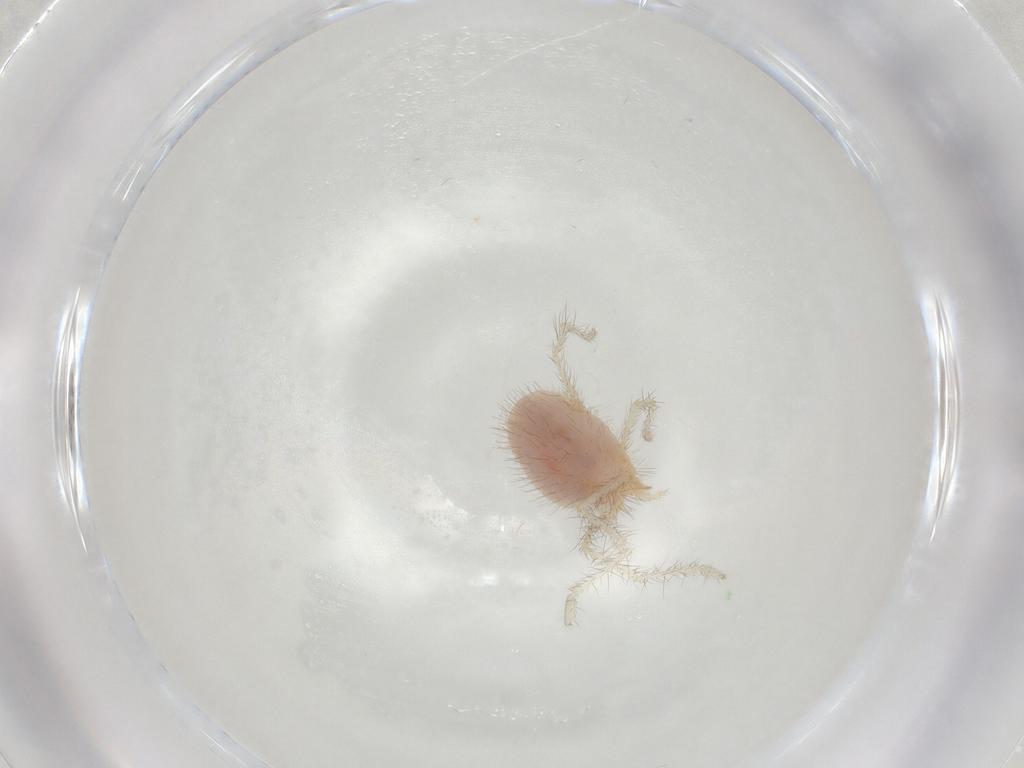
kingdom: Animalia
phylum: Arthropoda
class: Arachnida
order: Trombidiformes
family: Erythraeidae
